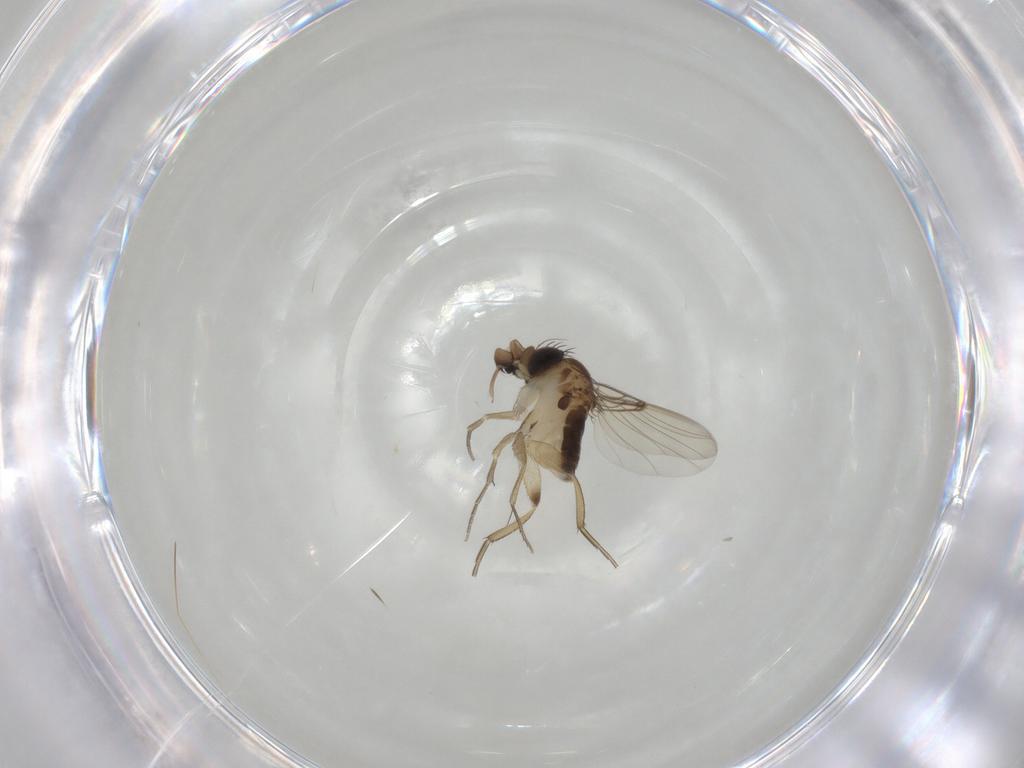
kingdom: Animalia
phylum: Arthropoda
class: Insecta
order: Diptera
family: Phoridae
